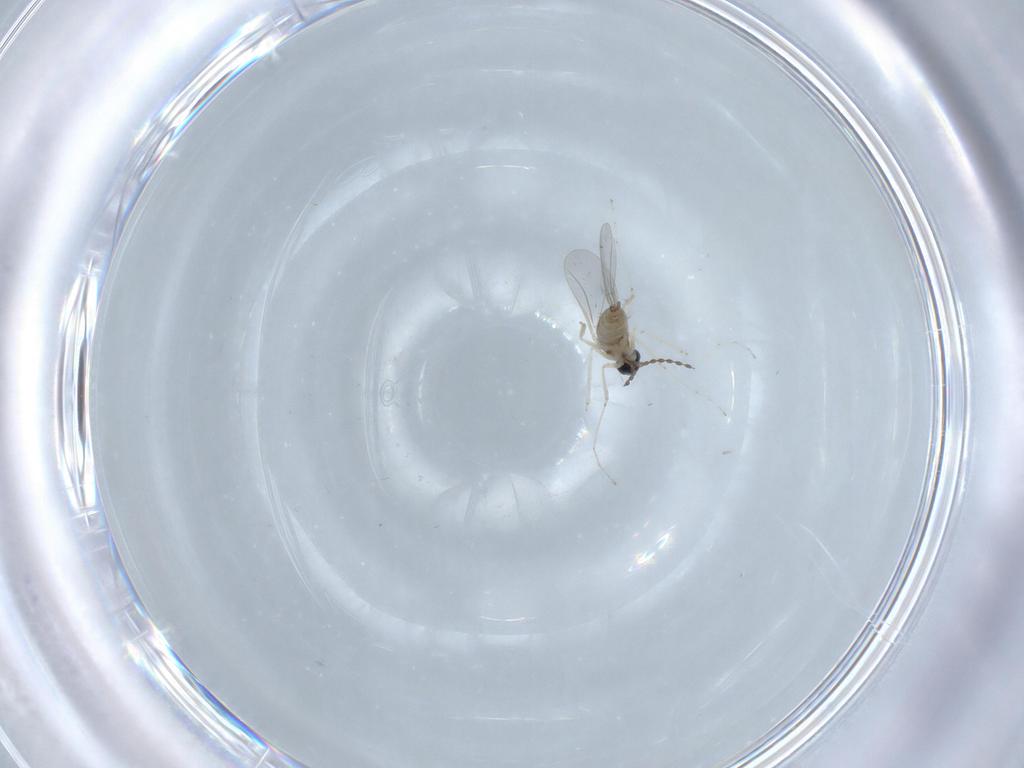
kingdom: Animalia
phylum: Arthropoda
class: Insecta
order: Diptera
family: Cecidomyiidae
